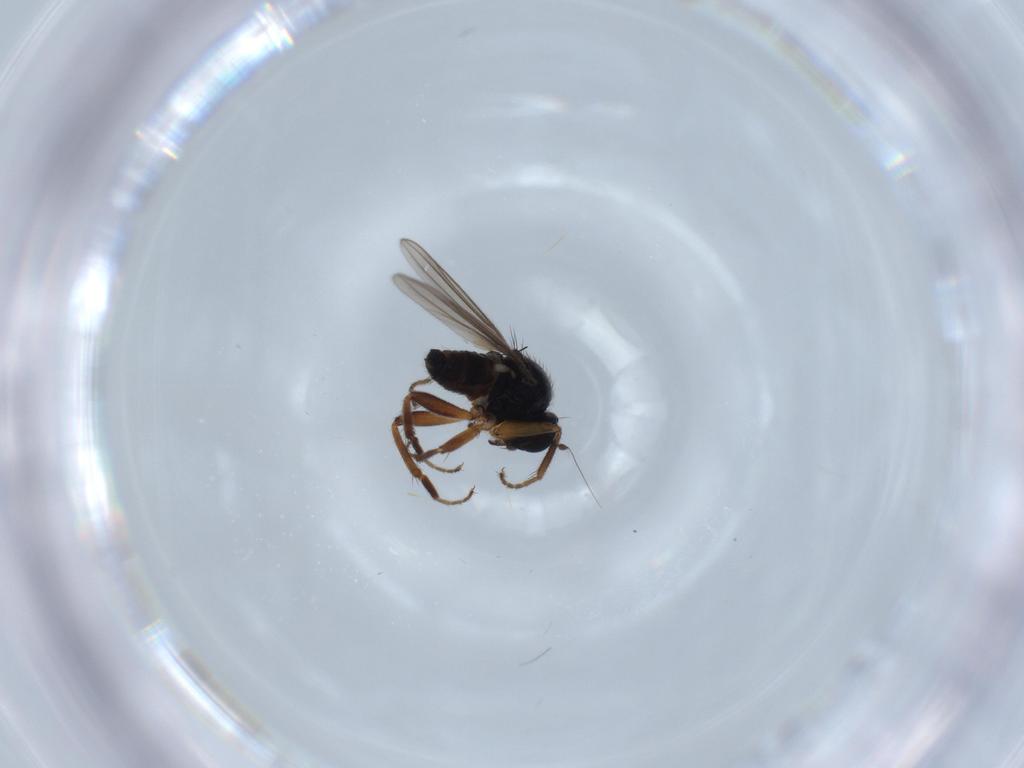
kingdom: Animalia
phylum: Arthropoda
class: Insecta
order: Diptera
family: Hybotidae
